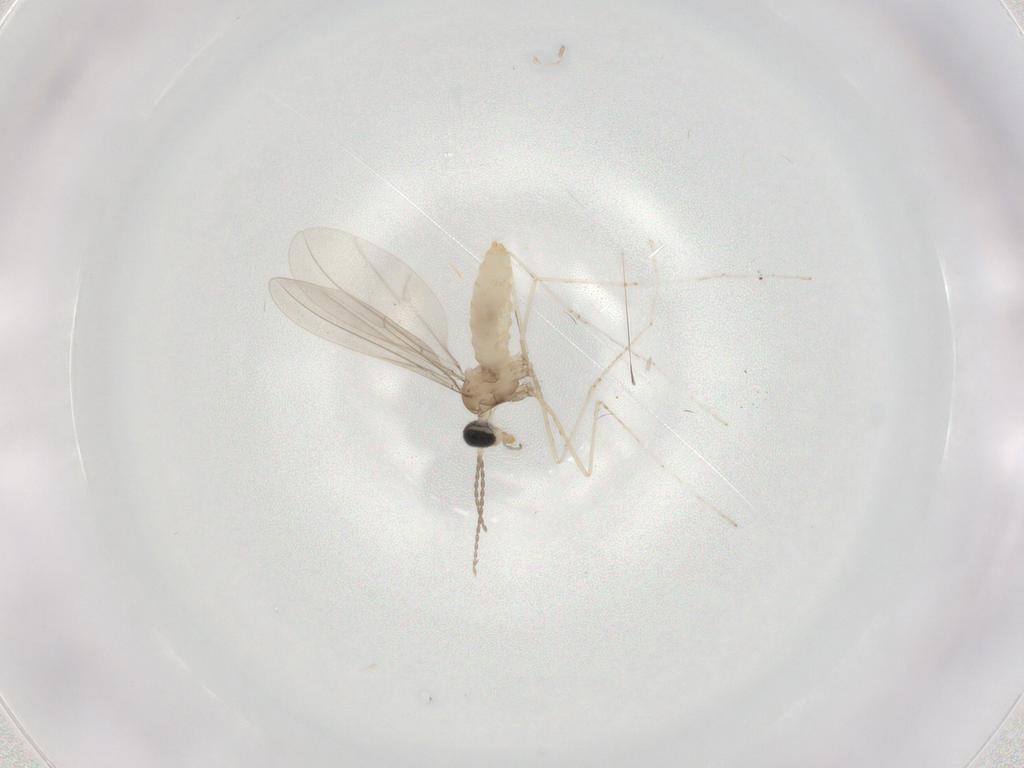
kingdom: Animalia
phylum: Arthropoda
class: Insecta
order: Diptera
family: Cecidomyiidae
